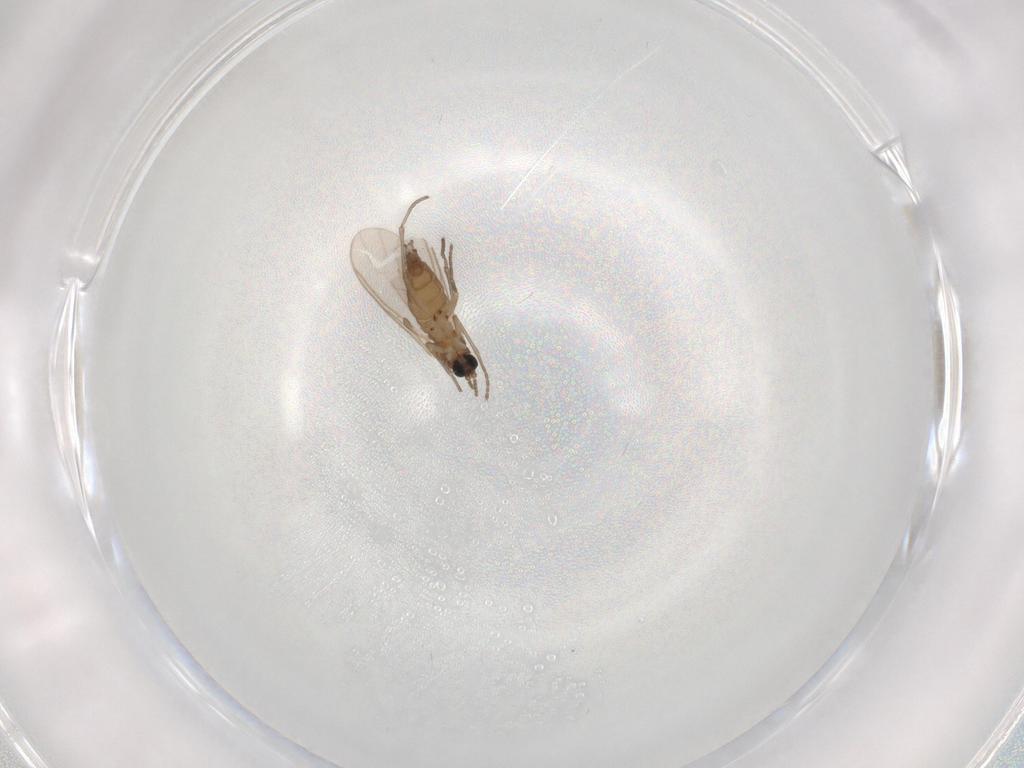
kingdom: Animalia
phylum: Arthropoda
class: Insecta
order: Diptera
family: Sciaridae
